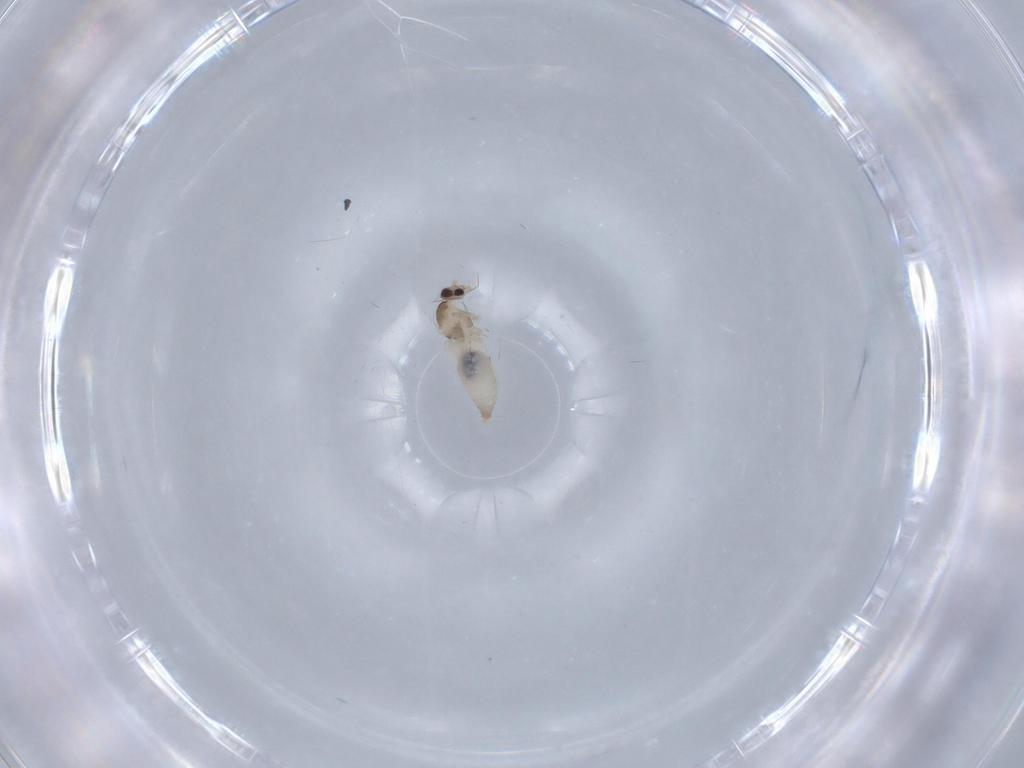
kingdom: Animalia
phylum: Arthropoda
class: Insecta
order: Diptera
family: Cecidomyiidae
